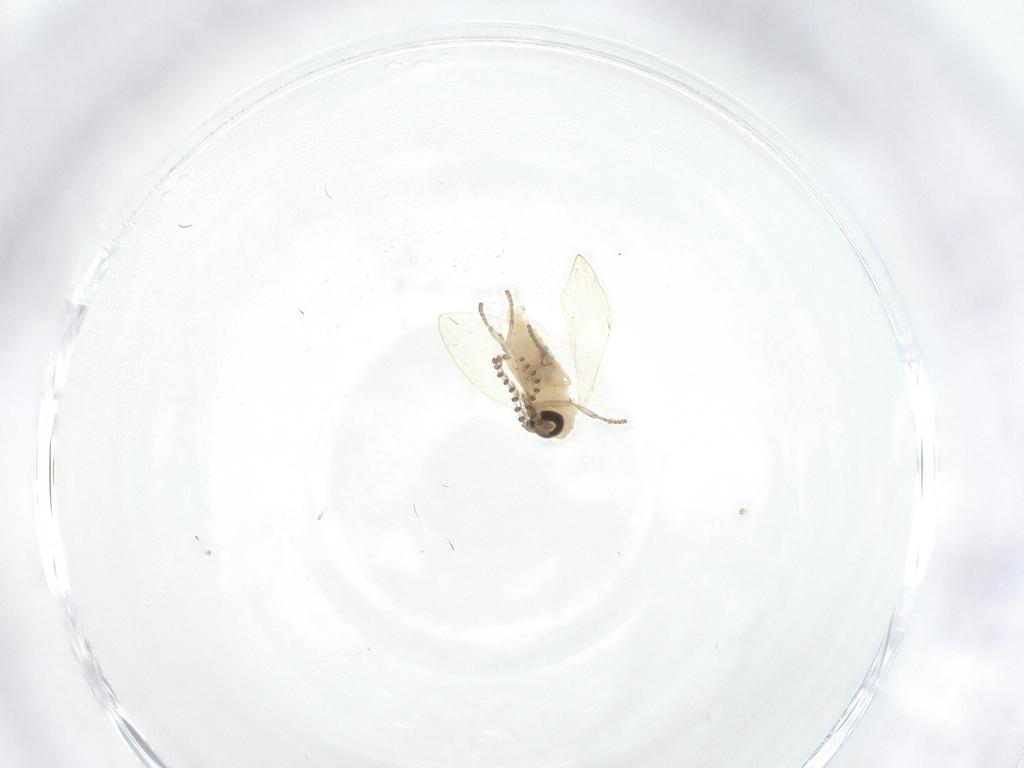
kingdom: Animalia
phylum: Arthropoda
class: Insecta
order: Diptera
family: Psychodidae
